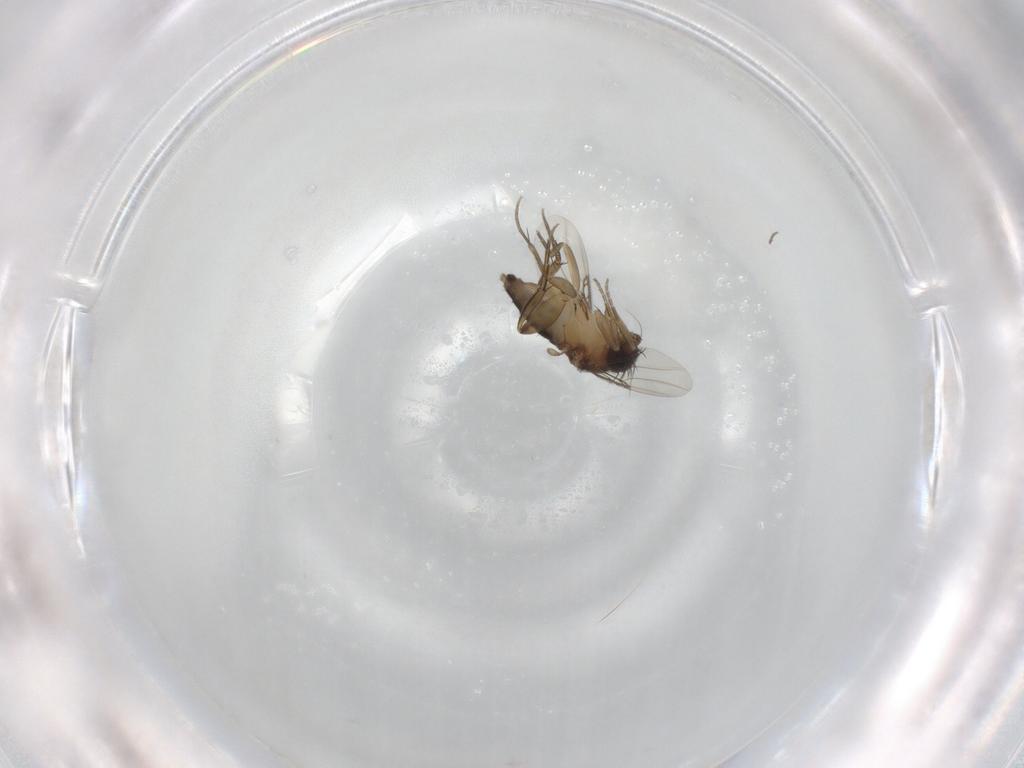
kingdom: Animalia
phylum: Arthropoda
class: Insecta
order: Diptera
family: Phoridae
